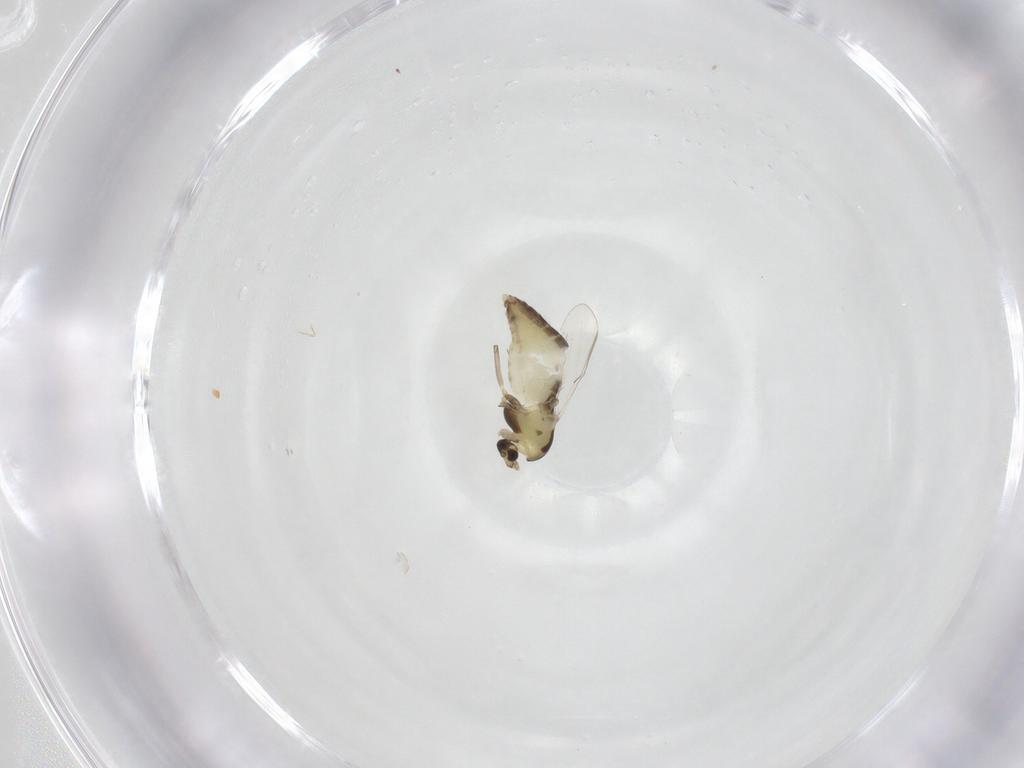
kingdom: Animalia
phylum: Arthropoda
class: Insecta
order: Diptera
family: Chironomidae
